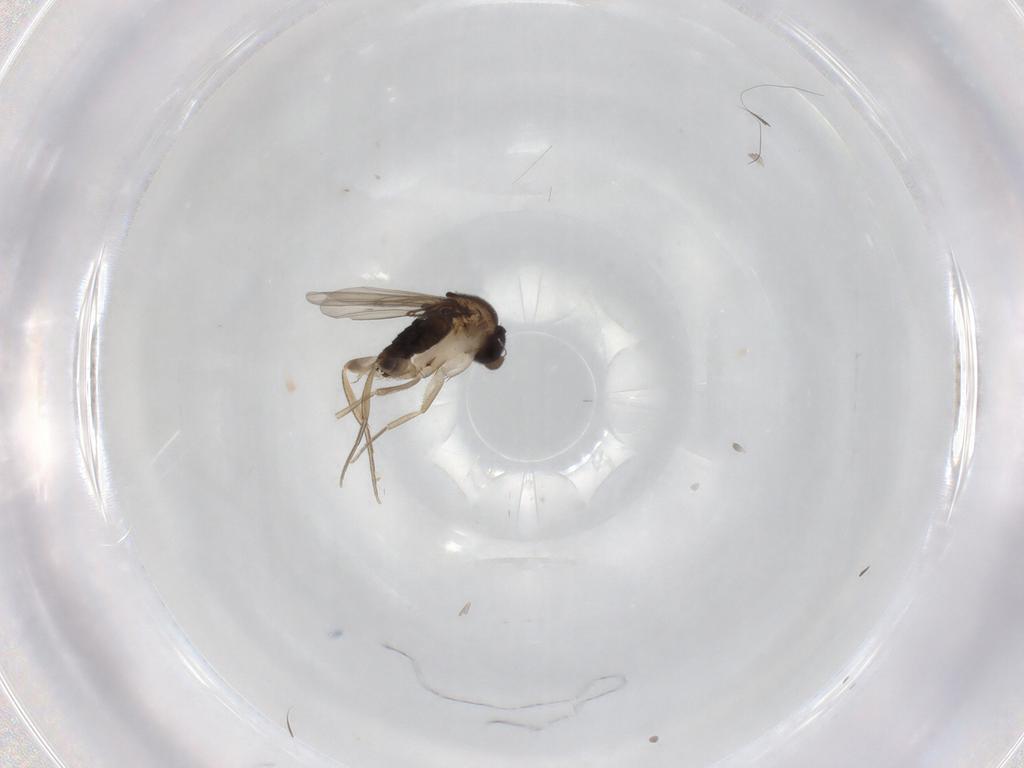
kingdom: Animalia
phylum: Arthropoda
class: Insecta
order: Diptera
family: Phoridae
